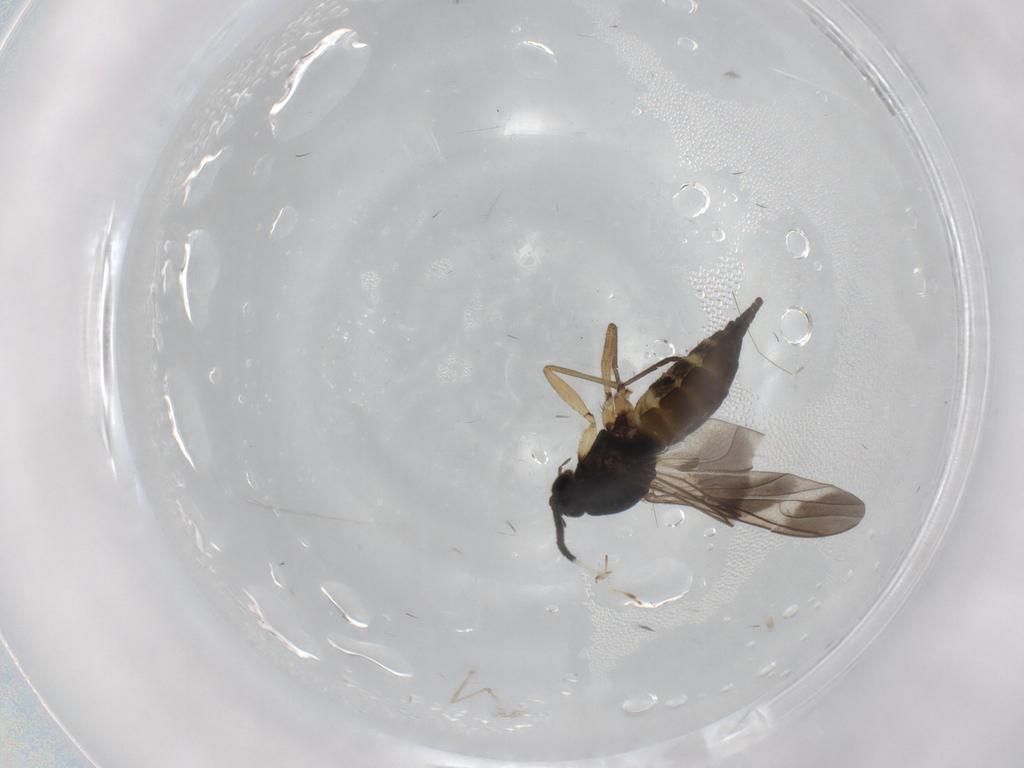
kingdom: Animalia
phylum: Arthropoda
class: Insecta
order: Diptera
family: Sciaridae
